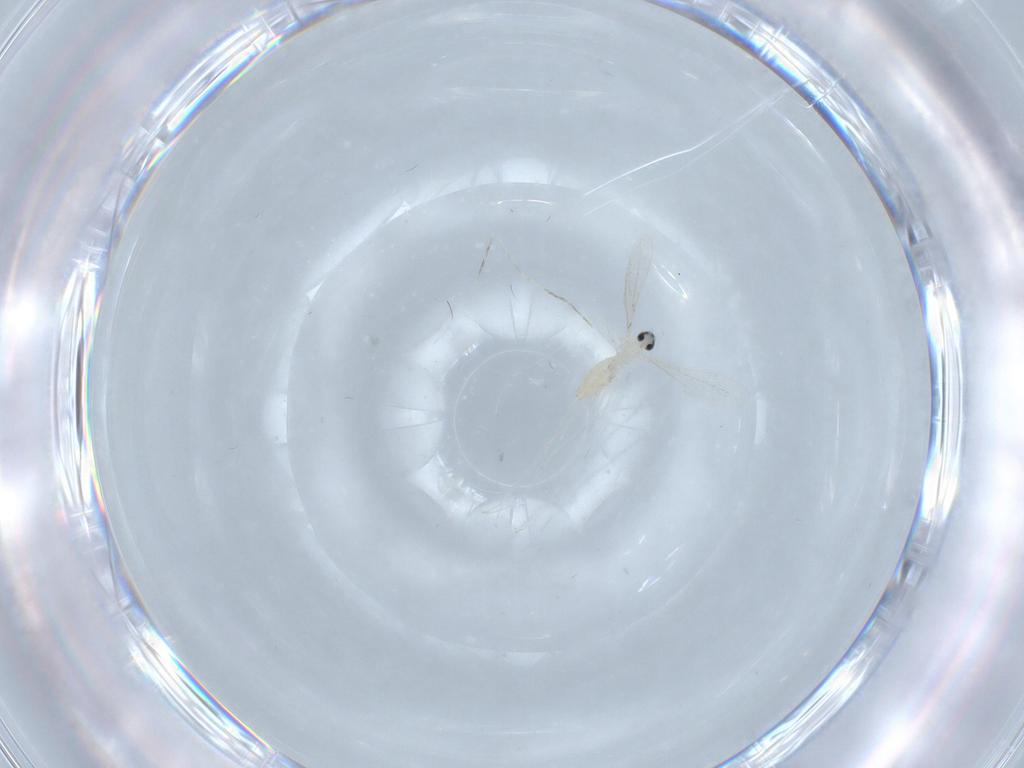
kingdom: Animalia
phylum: Arthropoda
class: Insecta
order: Diptera
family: Cecidomyiidae
